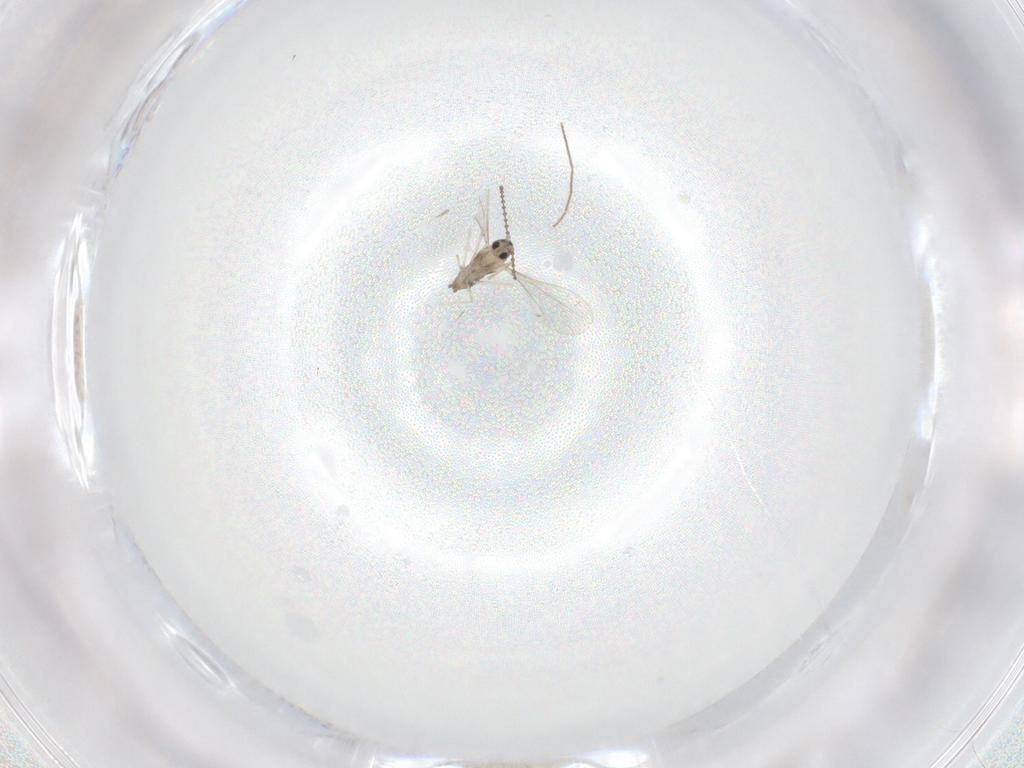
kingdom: Animalia
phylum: Arthropoda
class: Insecta
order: Diptera
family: Cecidomyiidae
